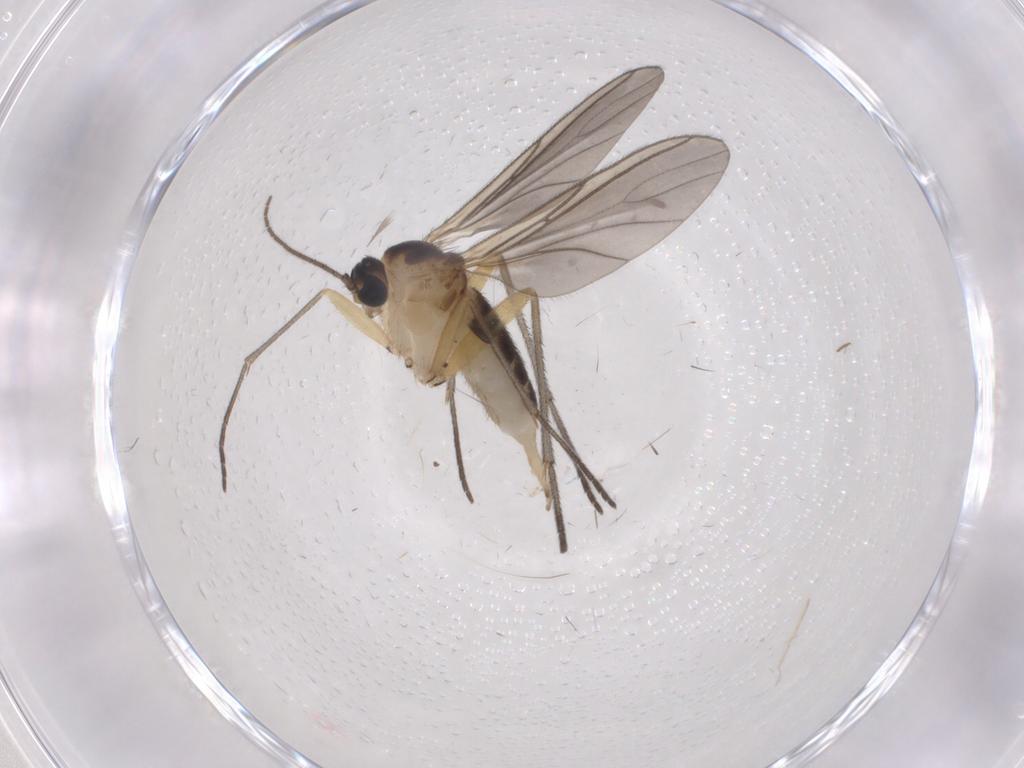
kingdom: Animalia
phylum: Arthropoda
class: Insecta
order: Diptera
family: Sciaridae
